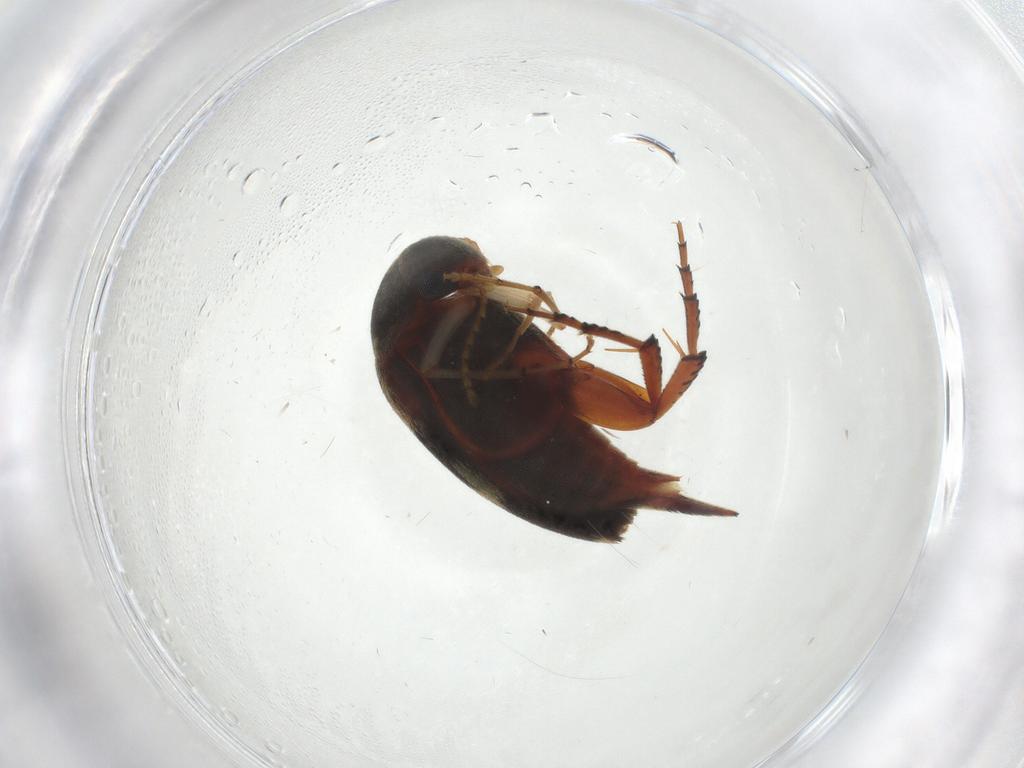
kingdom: Animalia
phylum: Arthropoda
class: Insecta
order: Coleoptera
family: Mordellidae
